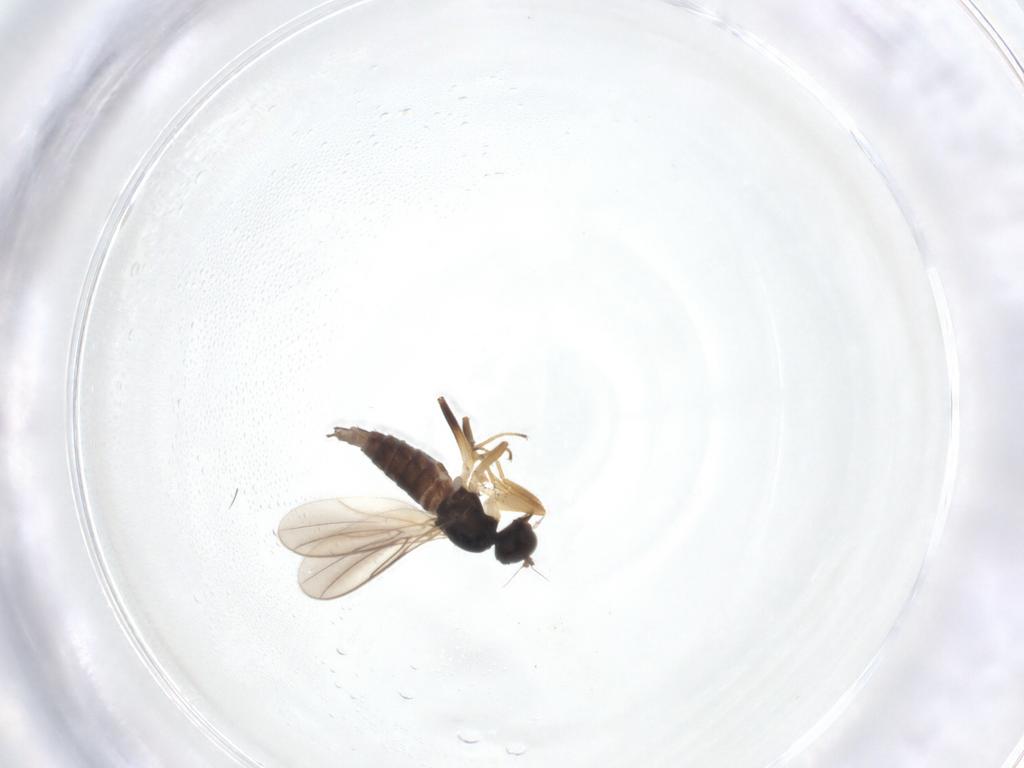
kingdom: Animalia
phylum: Arthropoda
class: Insecta
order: Diptera
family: Hybotidae
